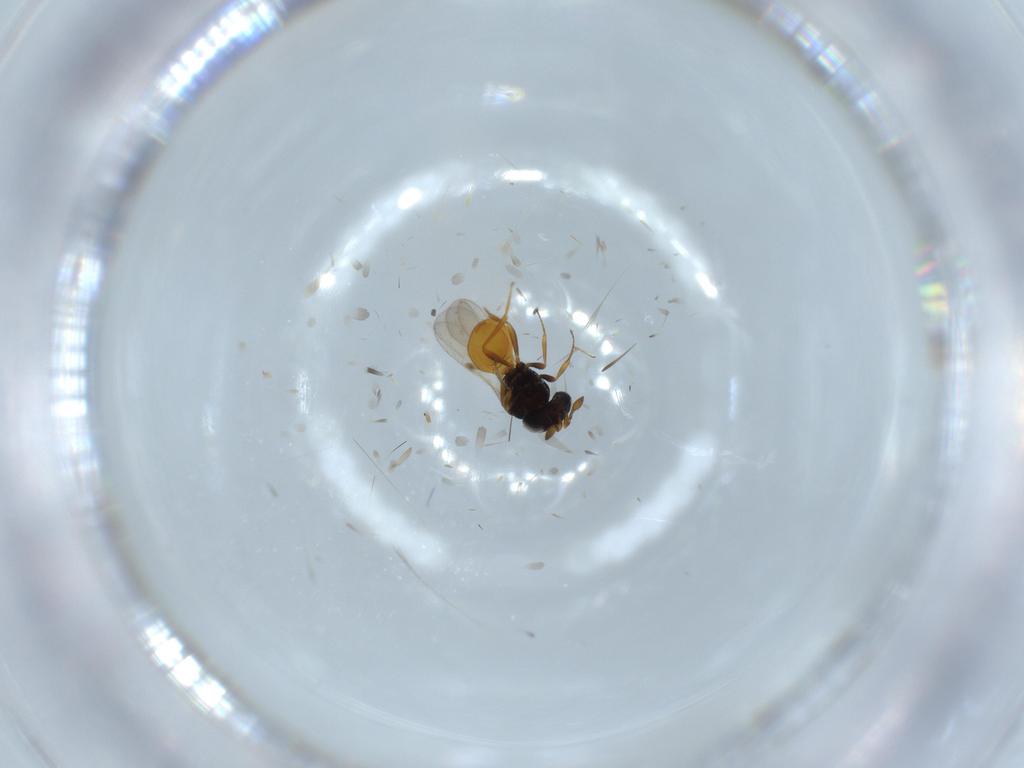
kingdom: Animalia
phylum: Arthropoda
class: Insecta
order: Hymenoptera
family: Scelionidae
